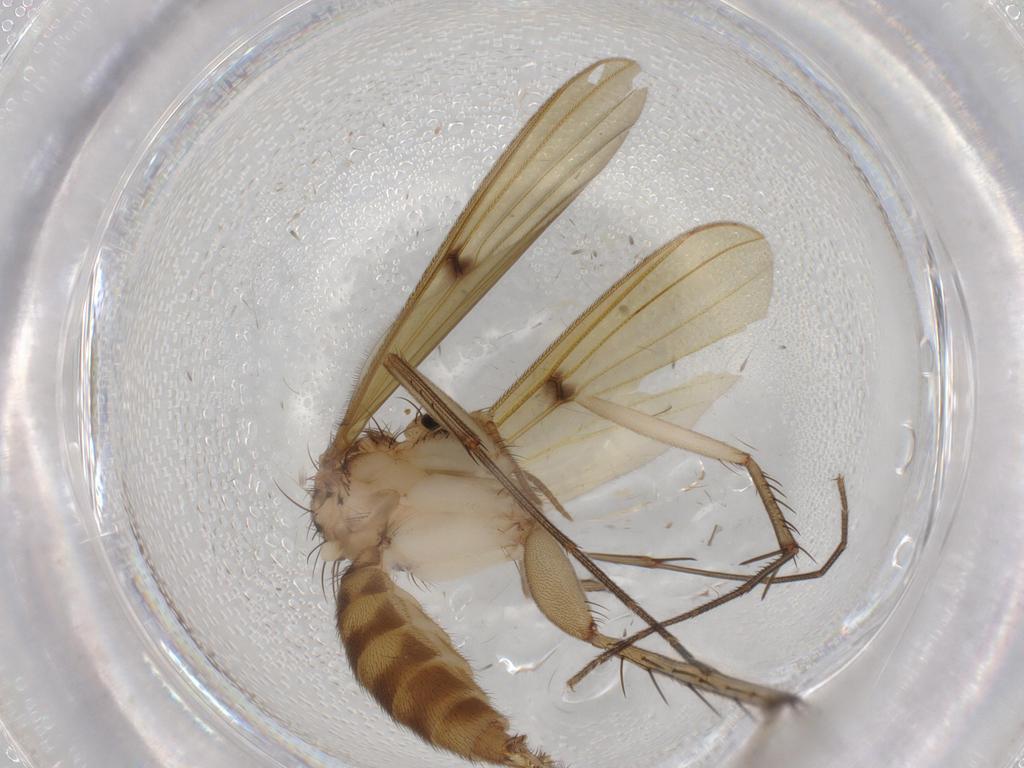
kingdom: Animalia
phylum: Arthropoda
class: Insecta
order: Diptera
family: Mycetophilidae
